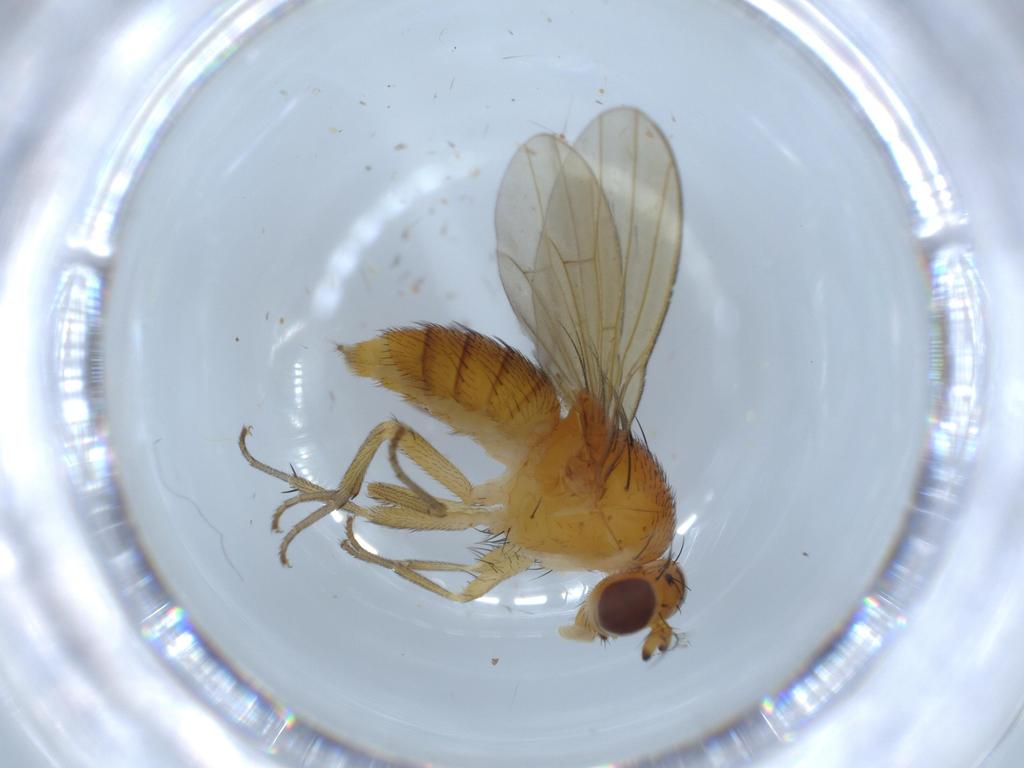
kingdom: Animalia
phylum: Arthropoda
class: Insecta
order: Diptera
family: Lauxaniidae
